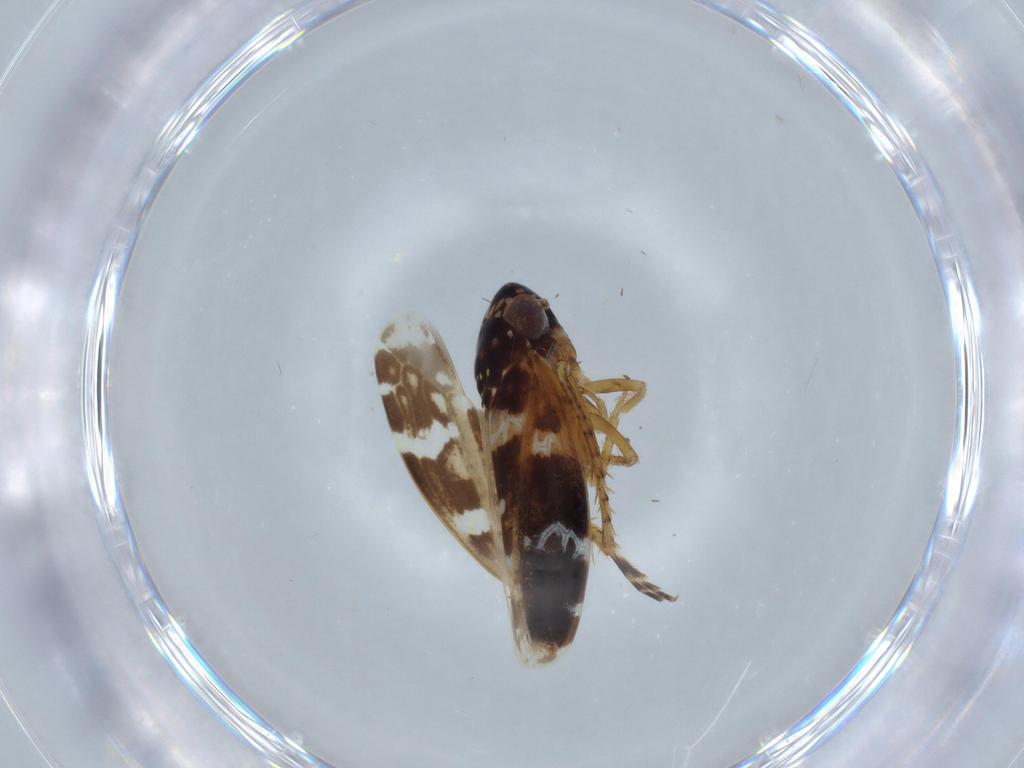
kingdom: Animalia
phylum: Arthropoda
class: Insecta
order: Hemiptera
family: Cicadellidae
